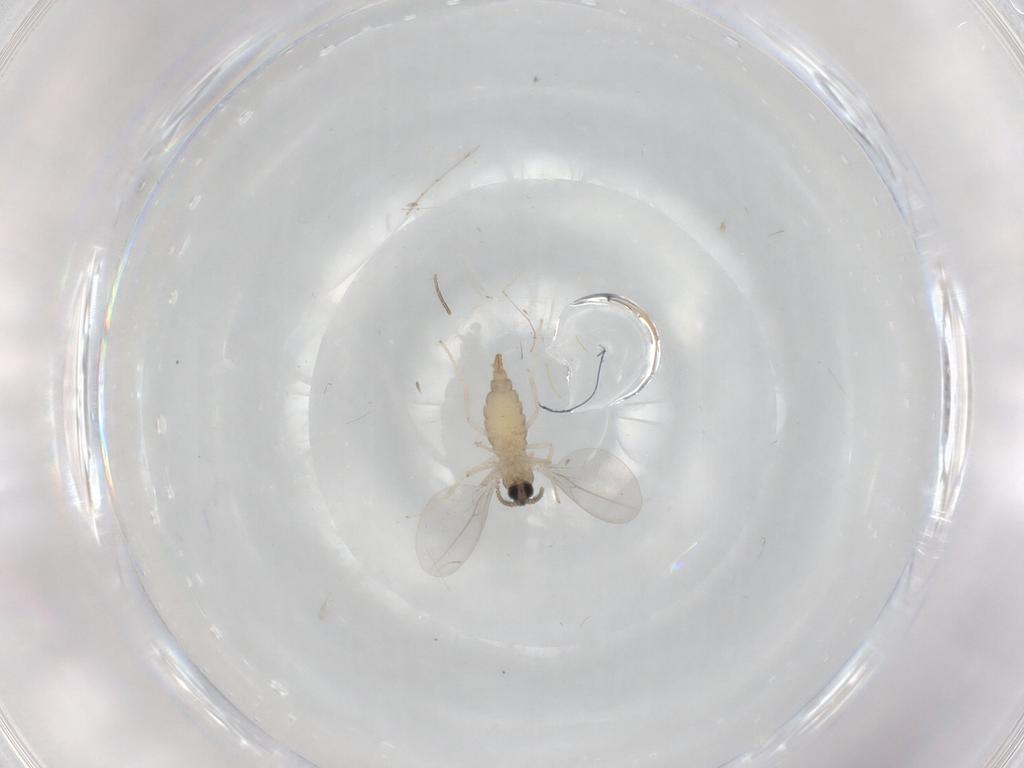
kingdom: Animalia
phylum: Arthropoda
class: Insecta
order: Diptera
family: Cecidomyiidae
